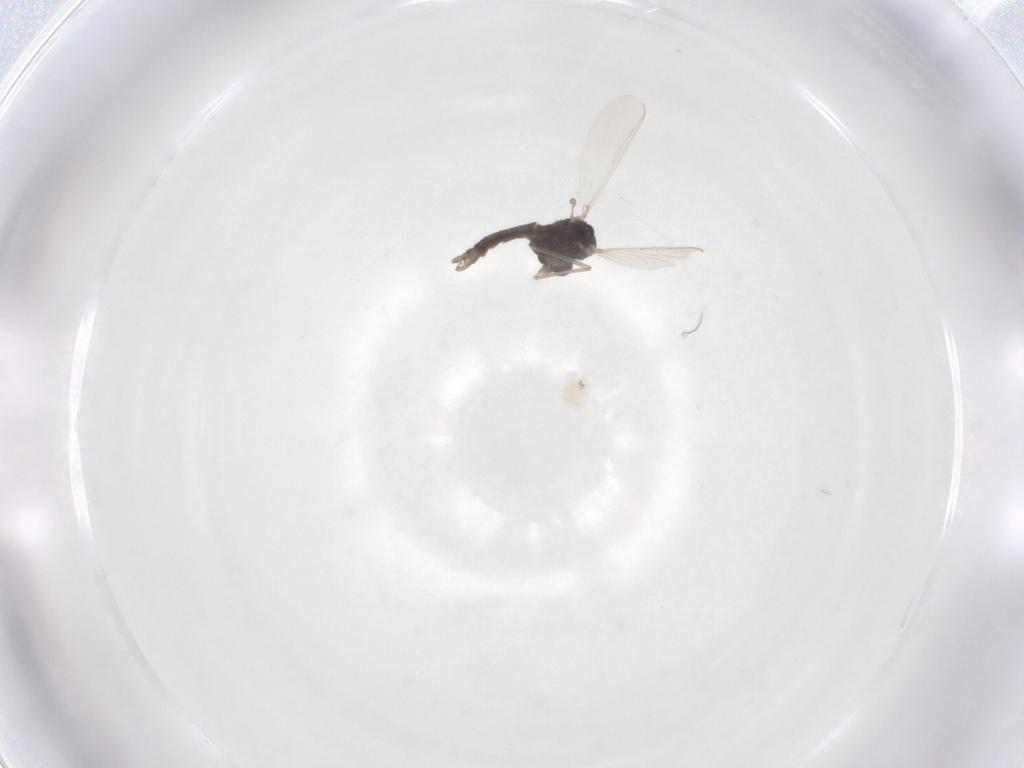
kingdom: Animalia
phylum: Arthropoda
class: Insecta
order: Diptera
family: Chironomidae
